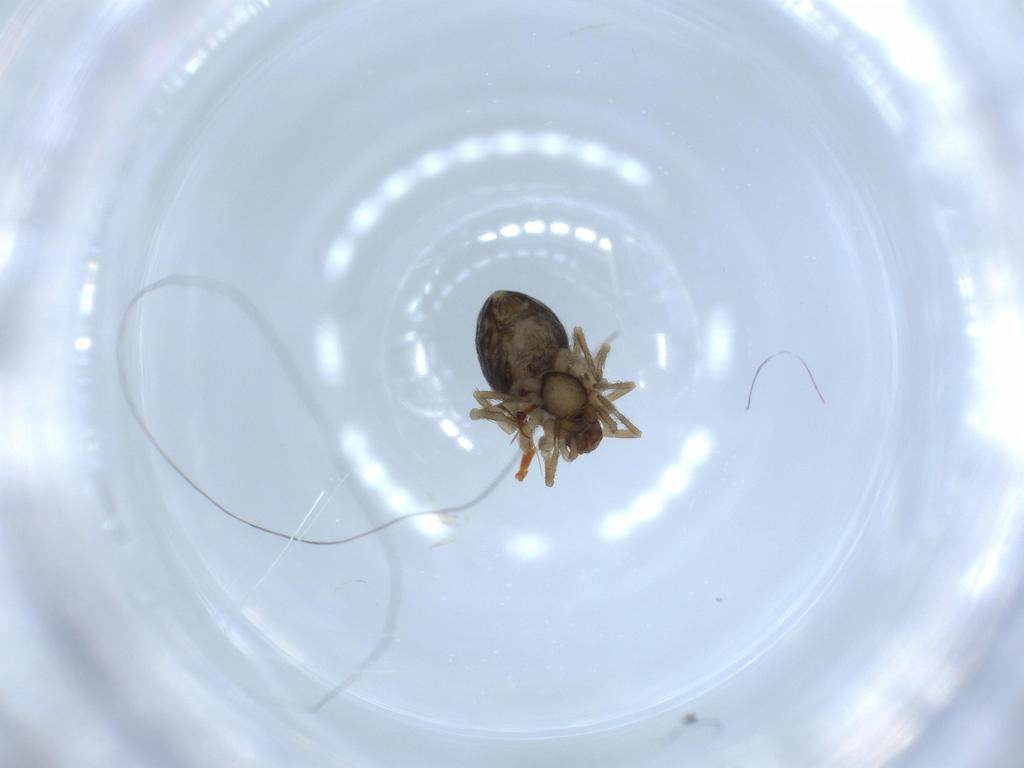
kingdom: Animalia
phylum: Arthropoda
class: Arachnida
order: Araneae
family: Dictynidae
